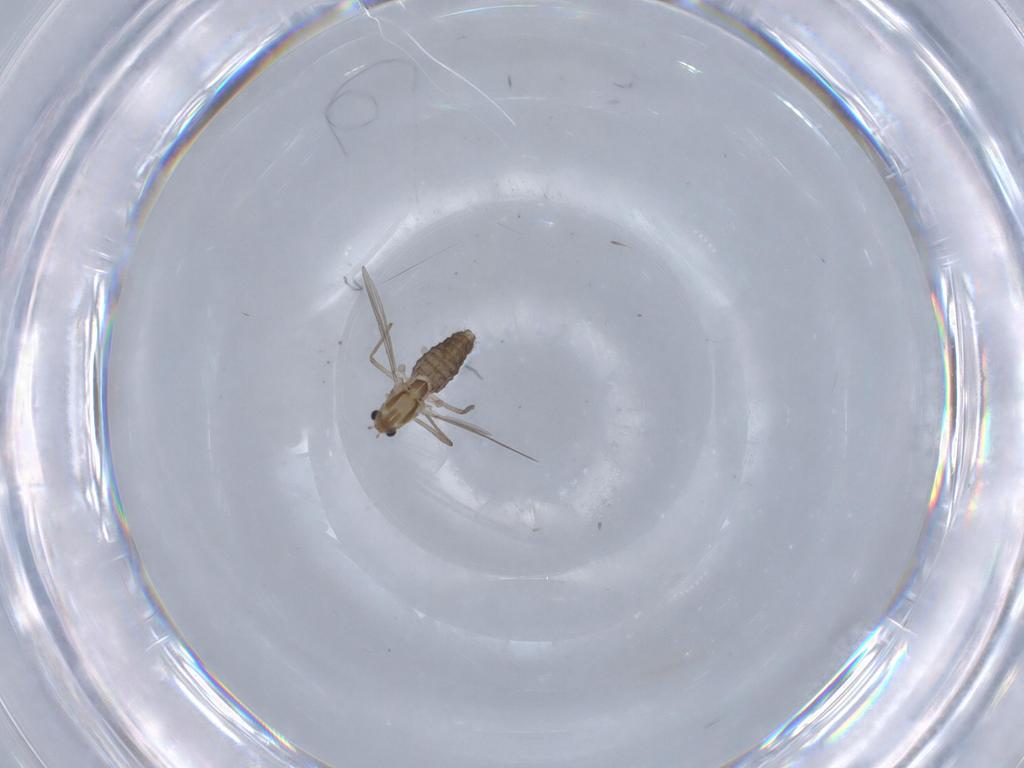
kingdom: Animalia
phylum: Arthropoda
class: Insecta
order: Diptera
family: Chironomidae
